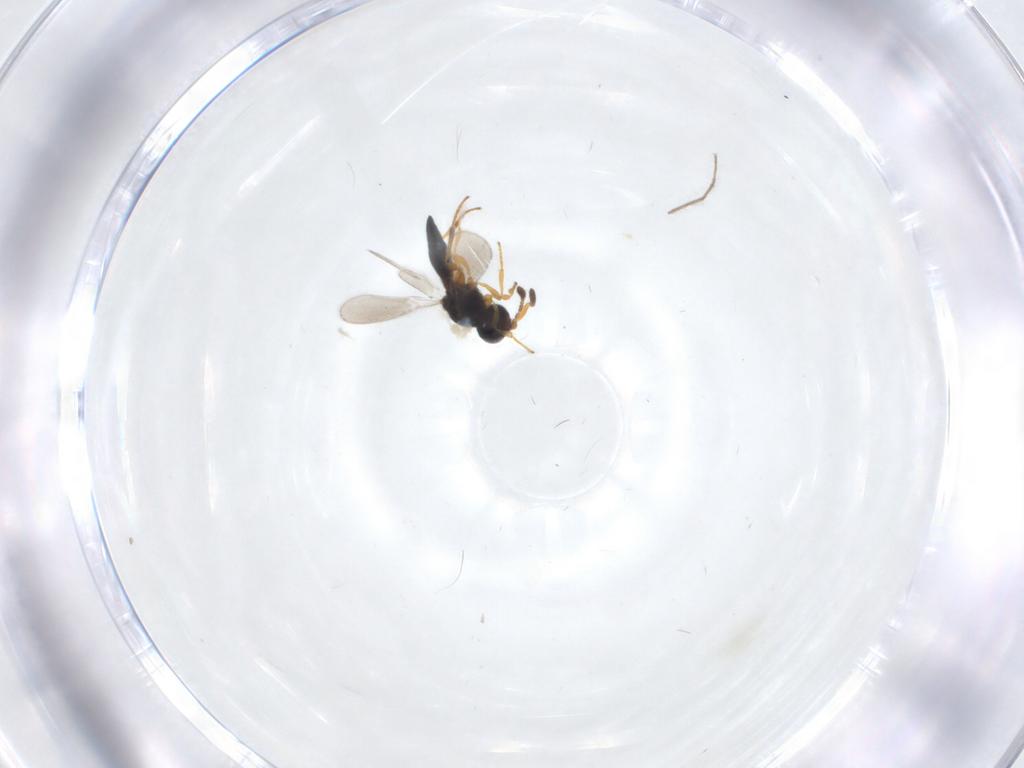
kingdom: Animalia
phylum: Arthropoda
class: Insecta
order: Hymenoptera
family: Platygastridae
